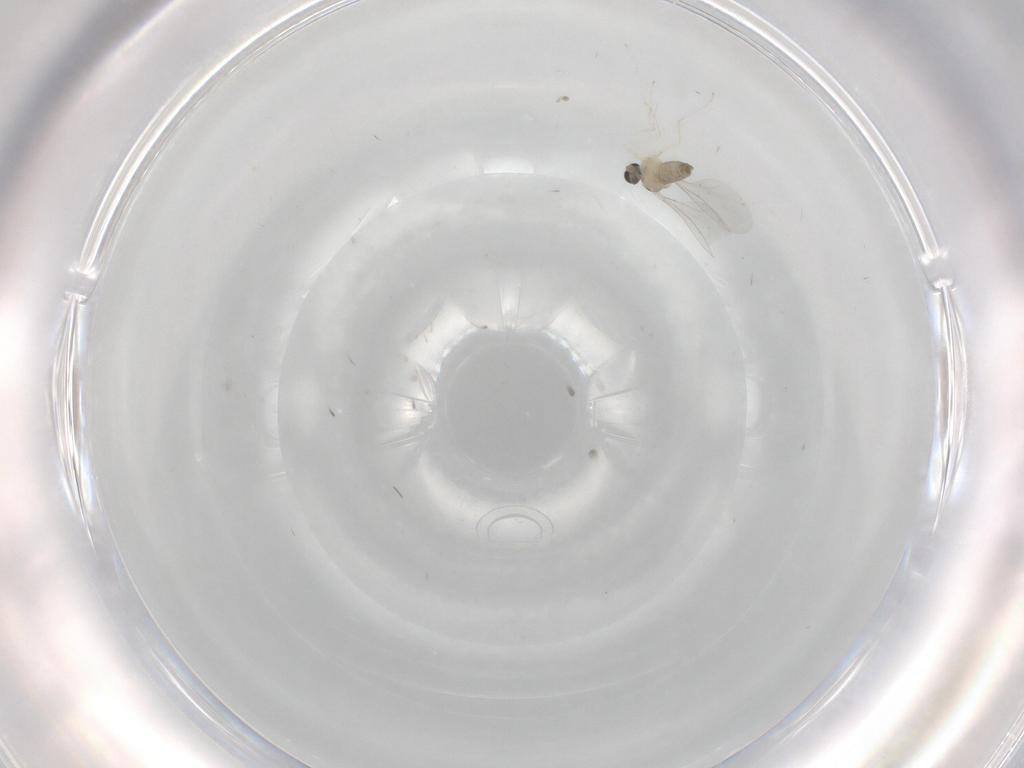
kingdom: Animalia
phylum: Arthropoda
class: Insecta
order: Diptera
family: Cecidomyiidae
